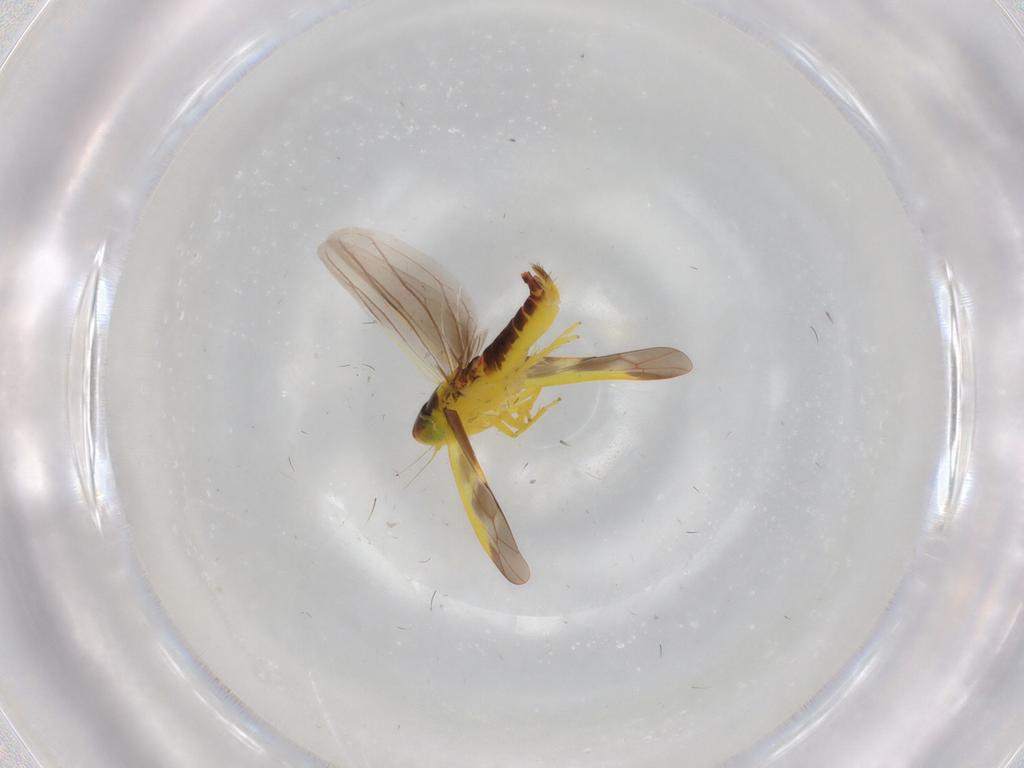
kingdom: Animalia
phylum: Arthropoda
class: Insecta
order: Hemiptera
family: Cicadellidae
